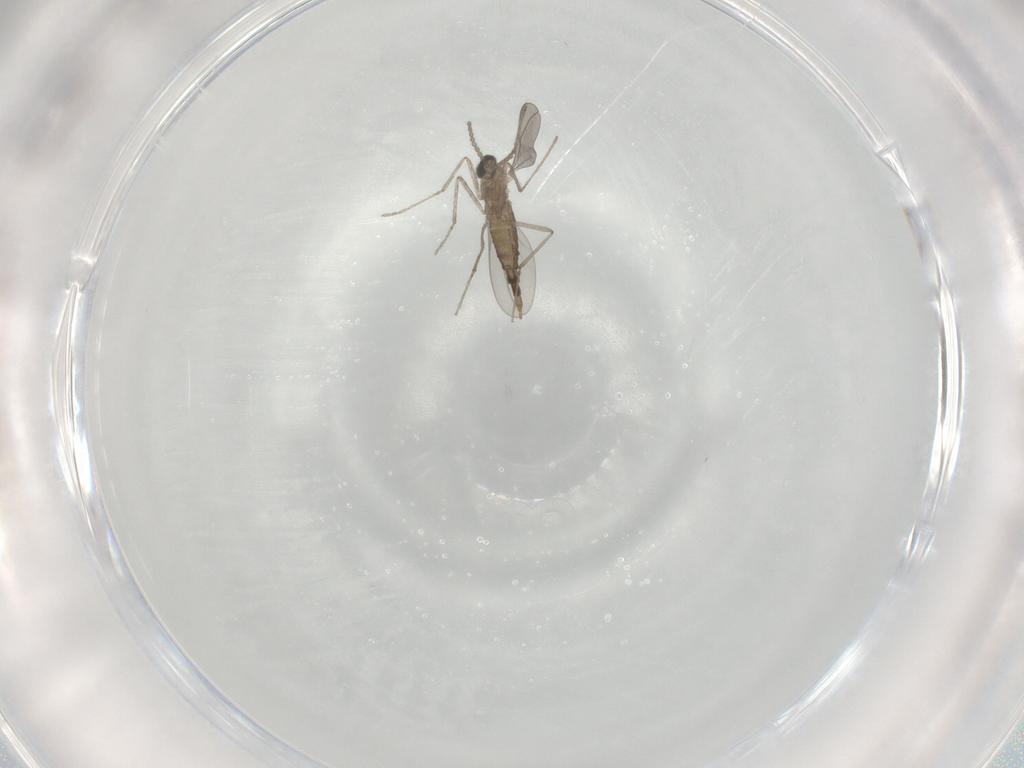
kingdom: Animalia
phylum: Arthropoda
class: Insecta
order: Diptera
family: Cecidomyiidae
